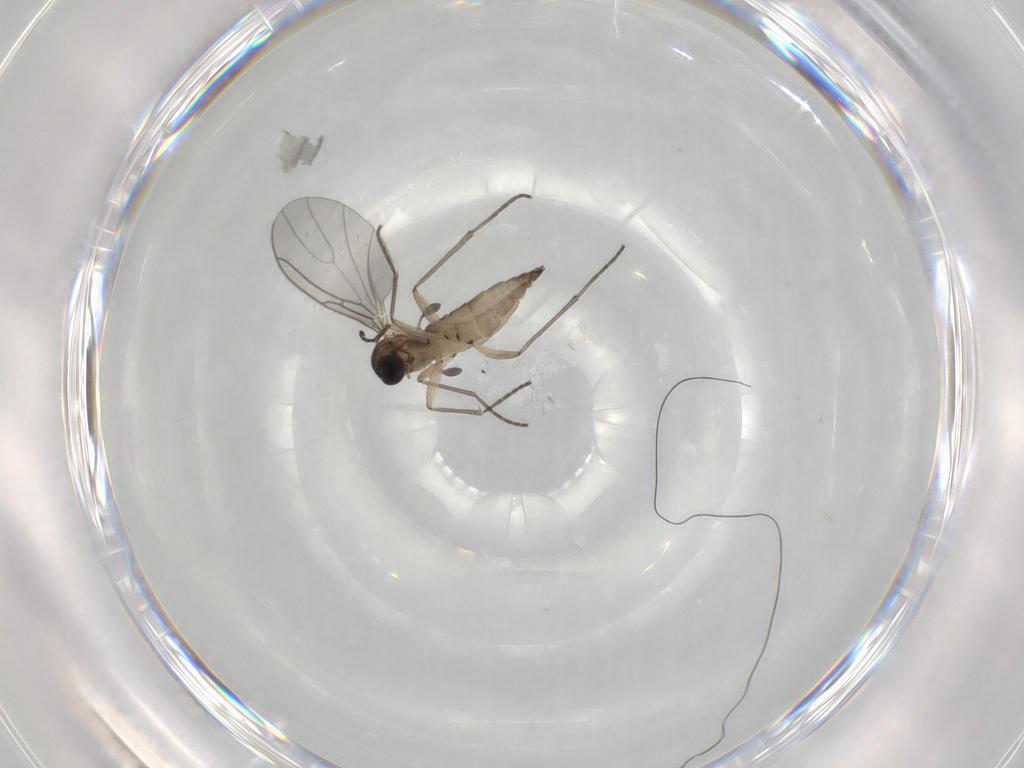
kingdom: Animalia
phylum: Arthropoda
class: Insecta
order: Diptera
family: Sciaridae
